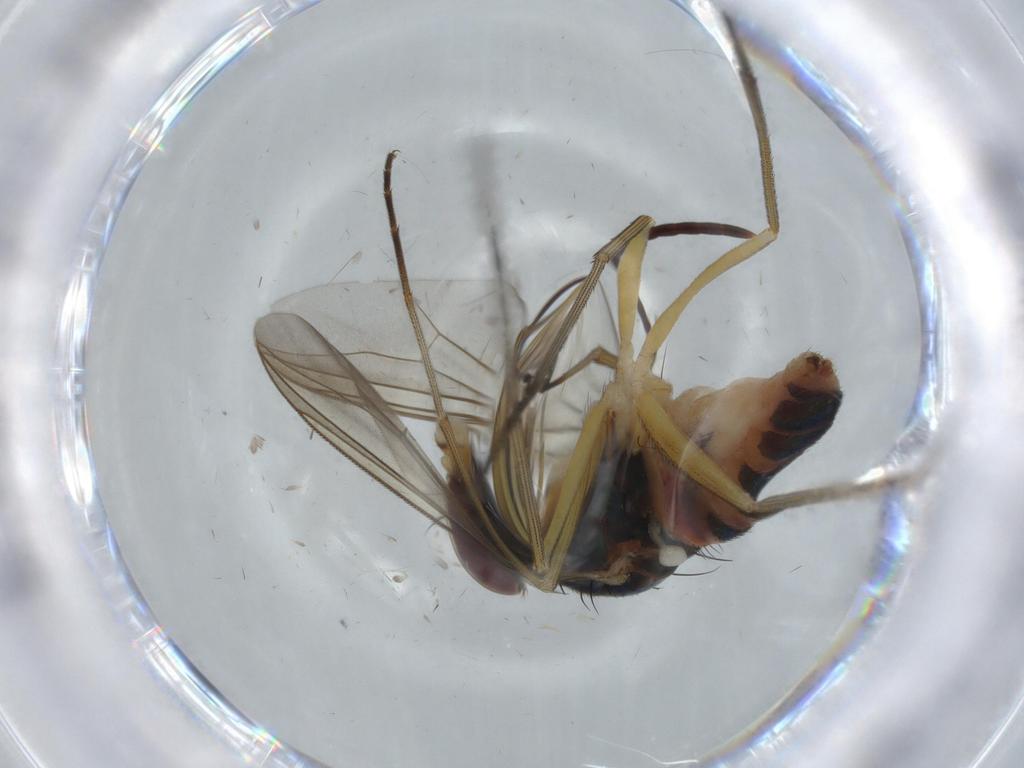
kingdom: Animalia
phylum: Arthropoda
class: Insecta
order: Diptera
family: Dolichopodidae
